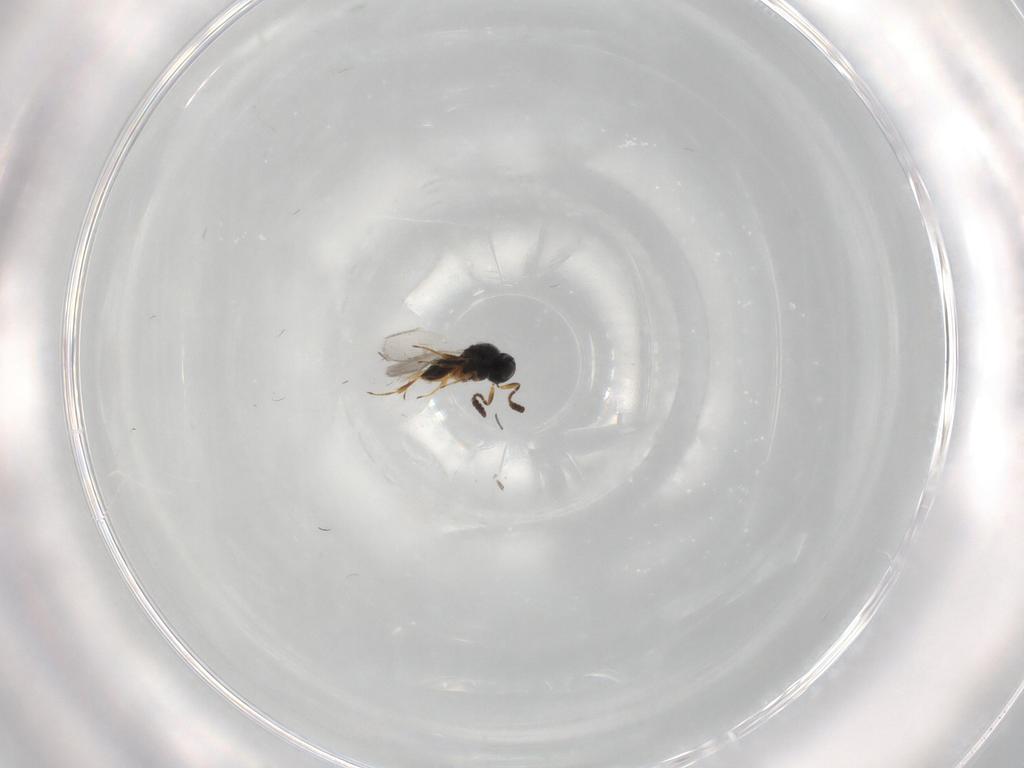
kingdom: Animalia
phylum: Arthropoda
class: Insecta
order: Hymenoptera
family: Scelionidae
